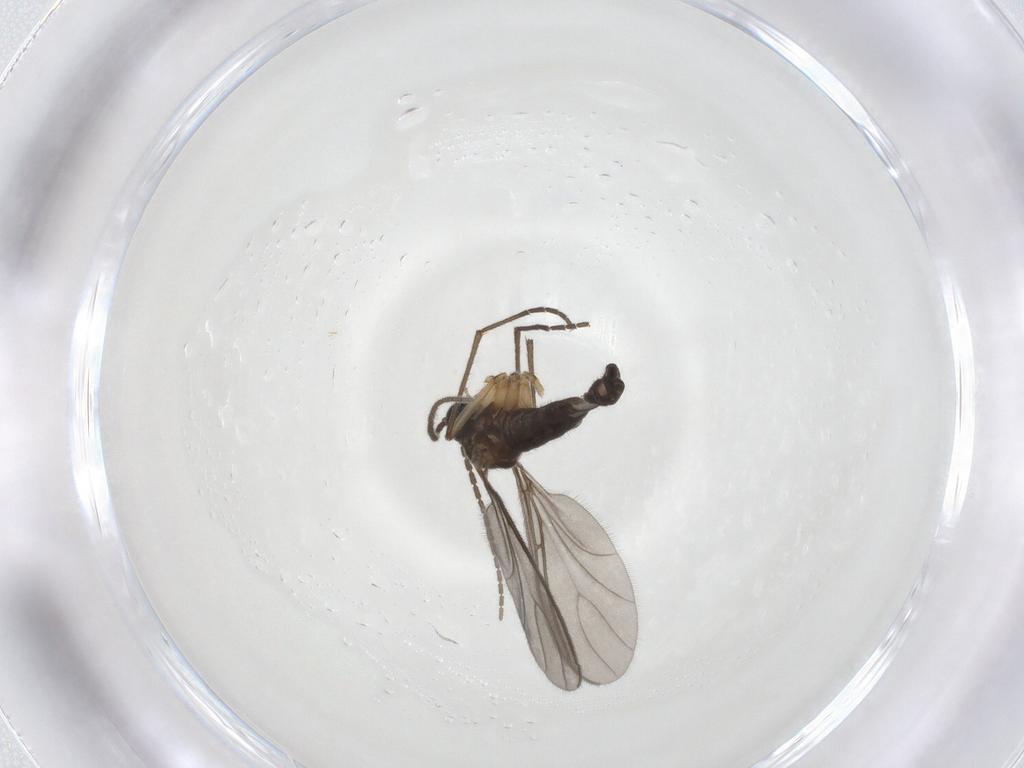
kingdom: Animalia
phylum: Arthropoda
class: Insecta
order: Diptera
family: Sciaridae
